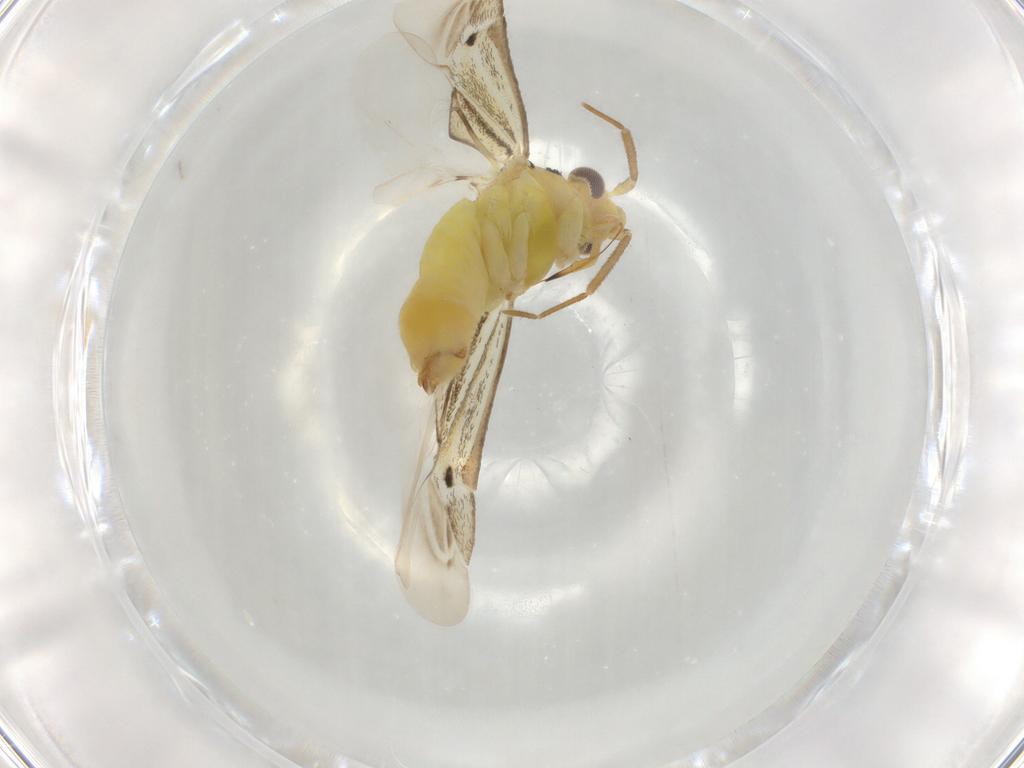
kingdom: Animalia
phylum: Arthropoda
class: Insecta
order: Hemiptera
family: Miridae
